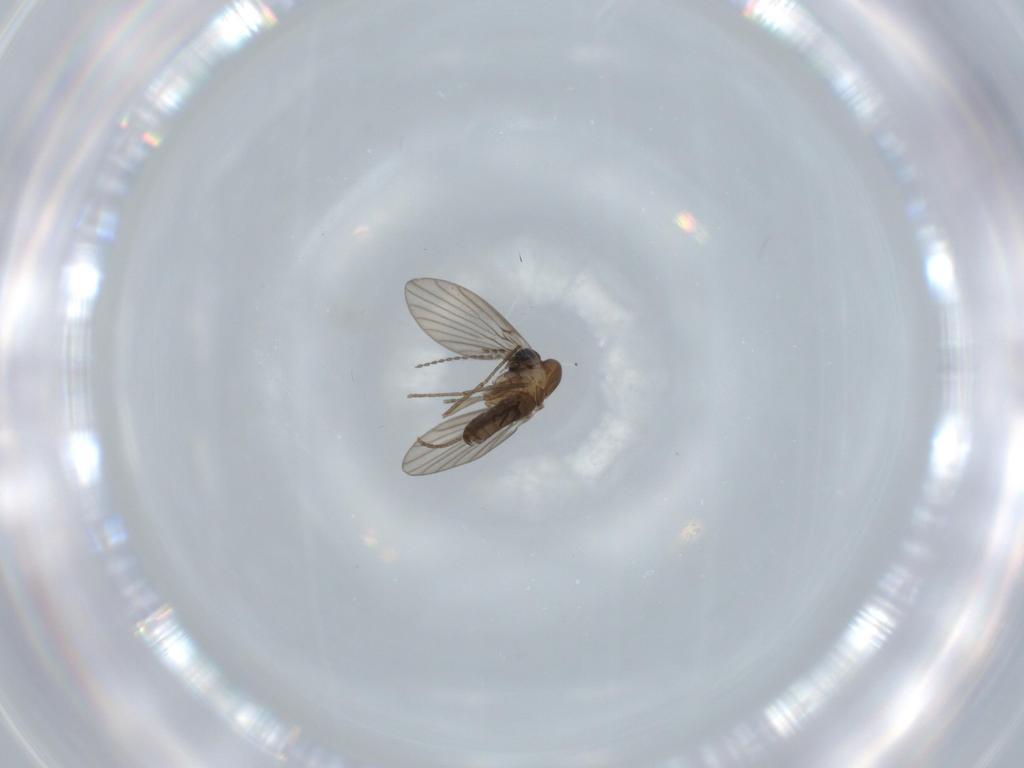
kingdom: Animalia
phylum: Arthropoda
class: Insecta
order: Diptera
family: Psychodidae
